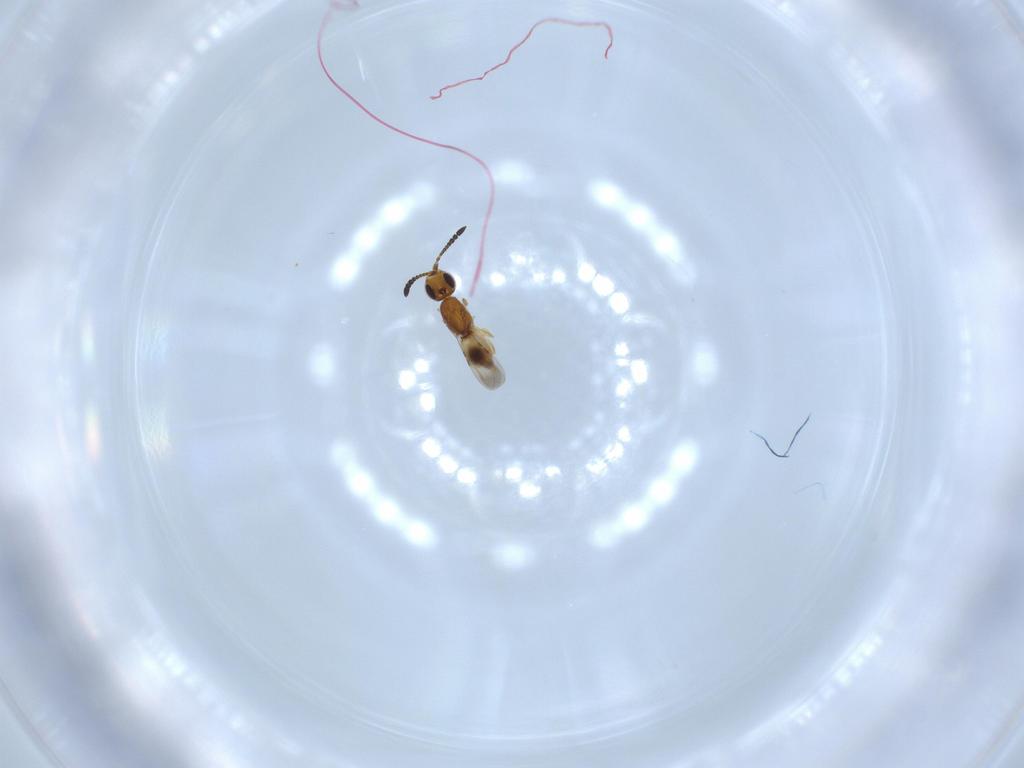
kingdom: Animalia
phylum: Arthropoda
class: Insecta
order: Hymenoptera
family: Ceraphronidae
